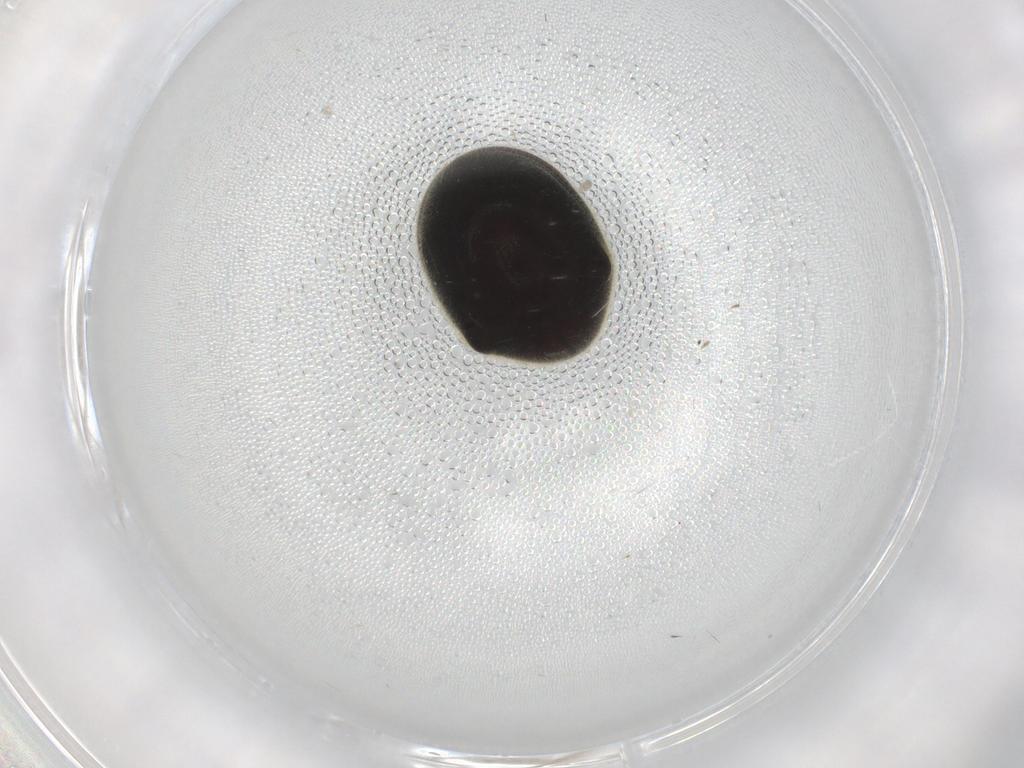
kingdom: Animalia
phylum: Arthropoda
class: Insecta
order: Coleoptera
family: Ptinidae
